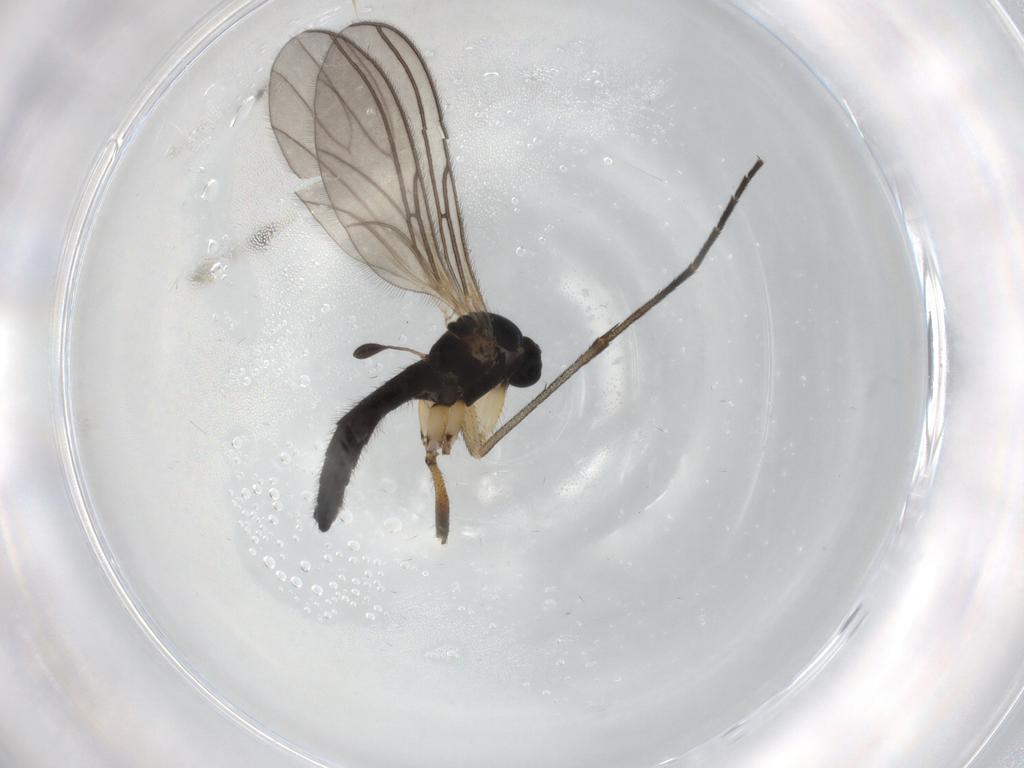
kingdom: Animalia
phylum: Arthropoda
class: Insecta
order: Diptera
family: Sciaridae
